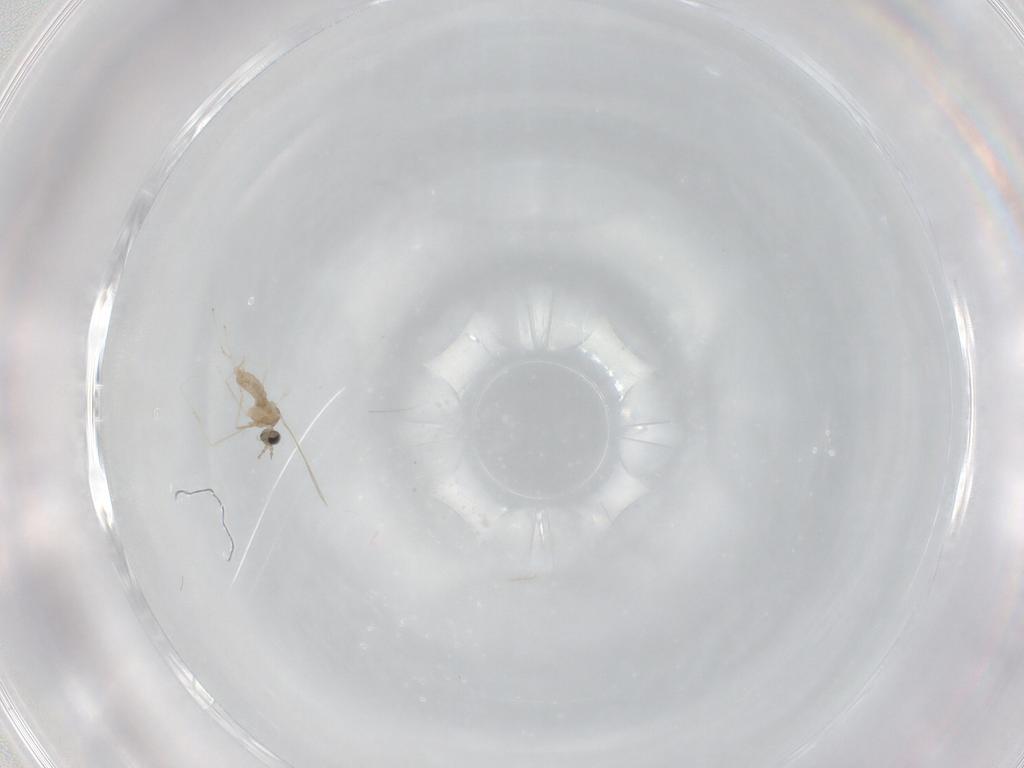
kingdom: Animalia
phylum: Arthropoda
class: Insecta
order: Diptera
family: Cecidomyiidae
